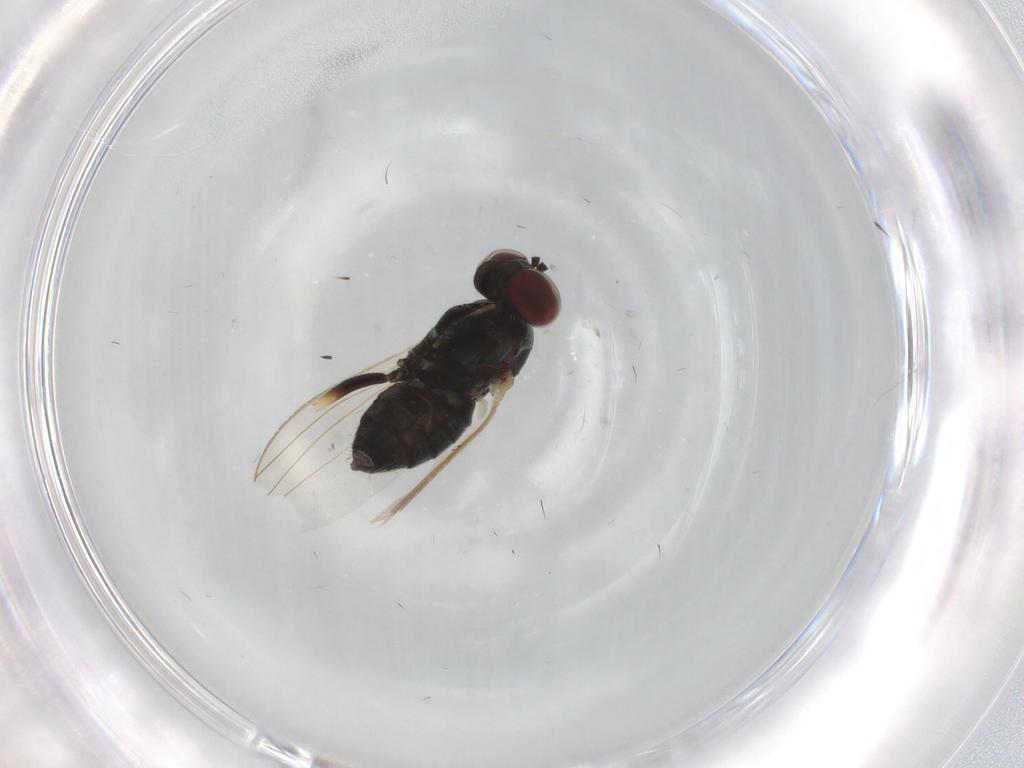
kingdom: Animalia
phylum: Arthropoda
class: Insecta
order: Diptera
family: Dolichopodidae
